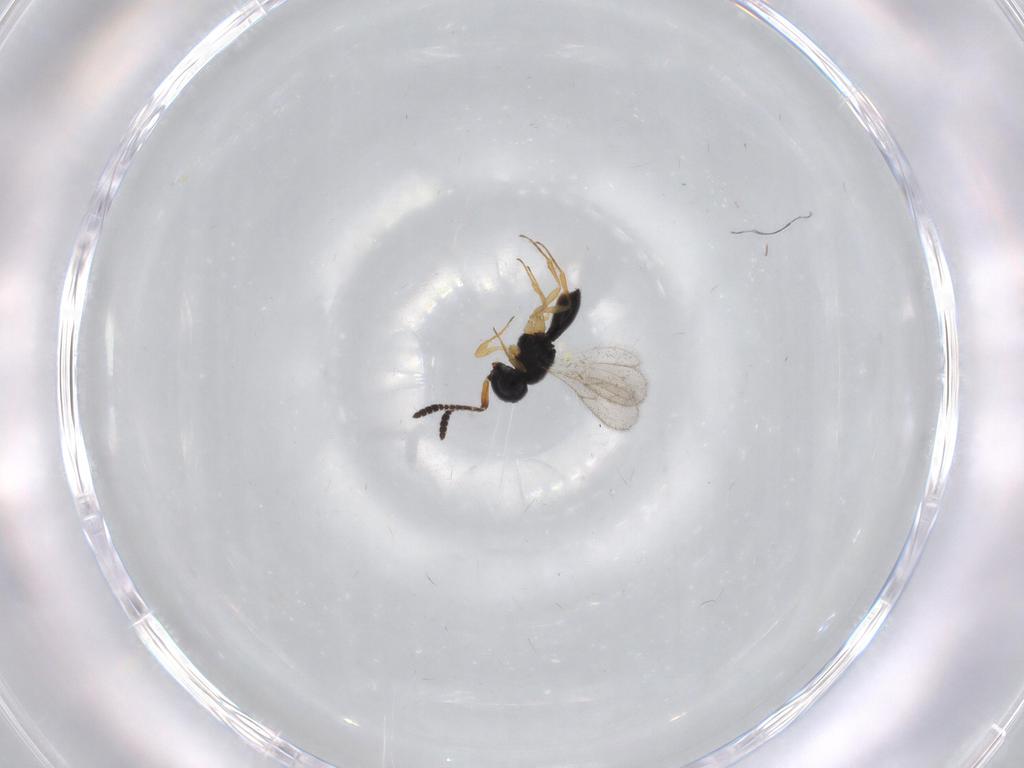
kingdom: Animalia
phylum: Arthropoda
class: Insecta
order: Hymenoptera
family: Scelionidae
